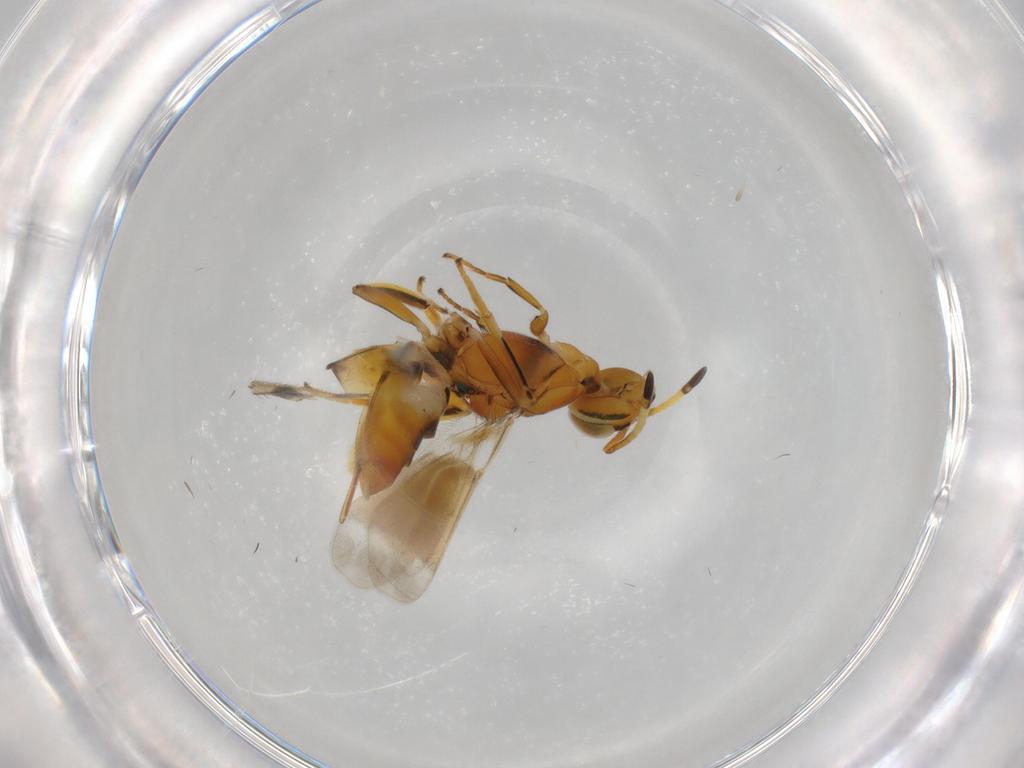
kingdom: Animalia
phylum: Arthropoda
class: Insecta
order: Hymenoptera
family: Eupelmidae
